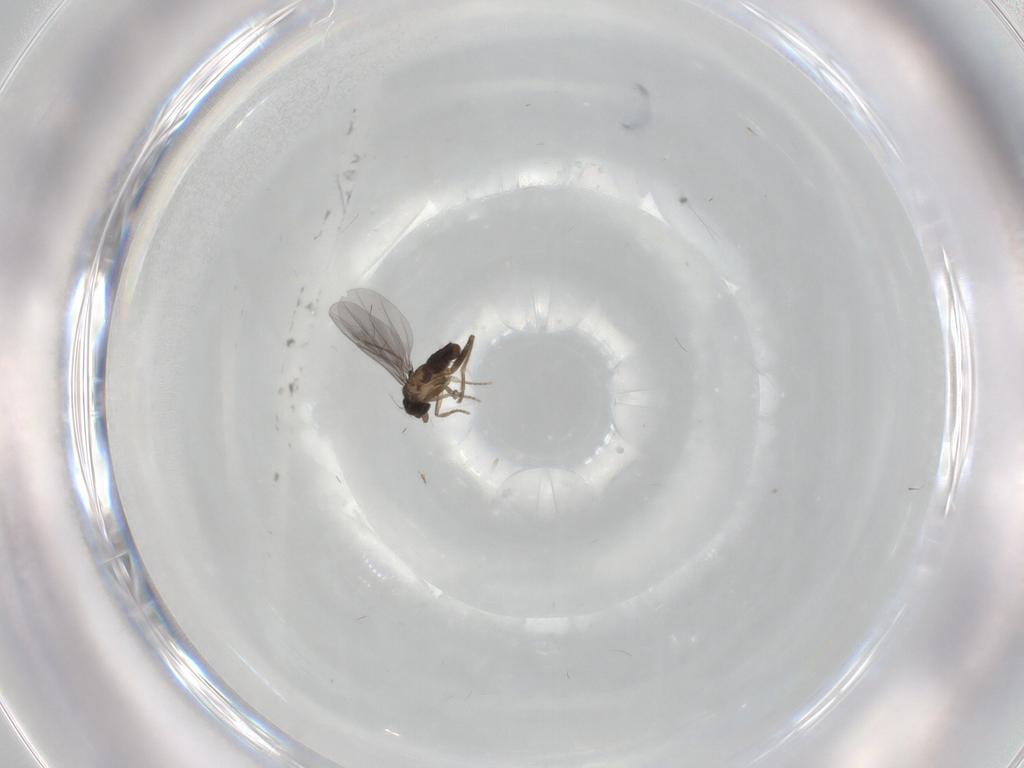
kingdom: Animalia
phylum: Arthropoda
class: Insecta
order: Diptera
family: Ceratopogonidae
